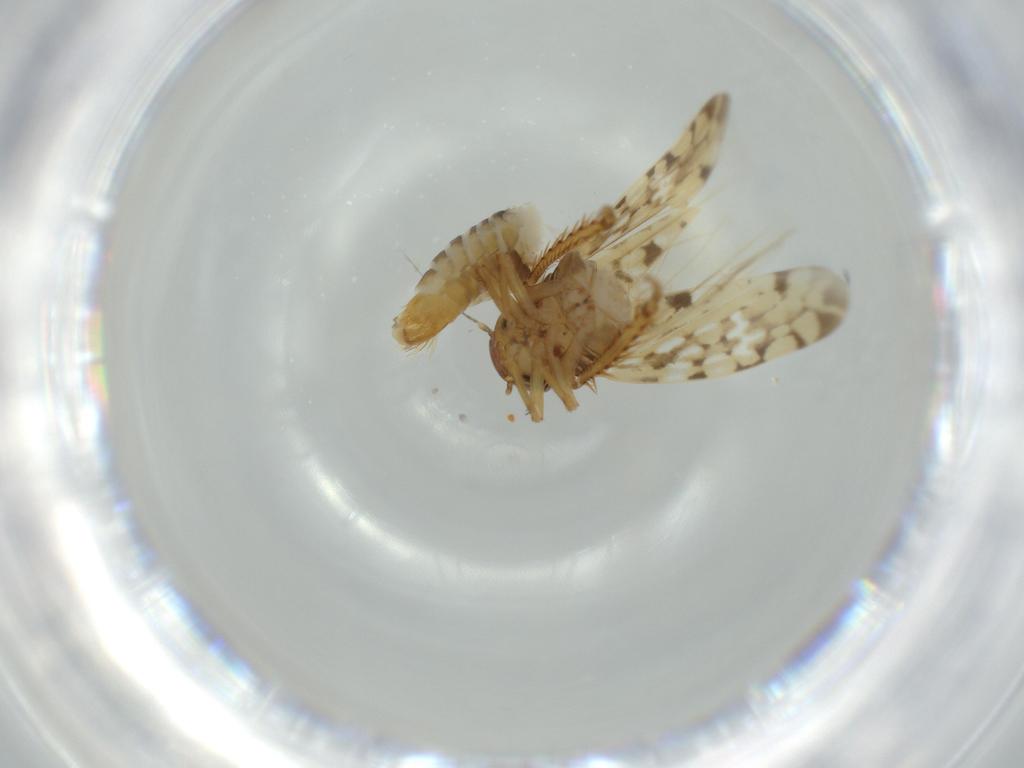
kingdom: Animalia
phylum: Arthropoda
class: Insecta
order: Hemiptera
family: Cicadellidae
